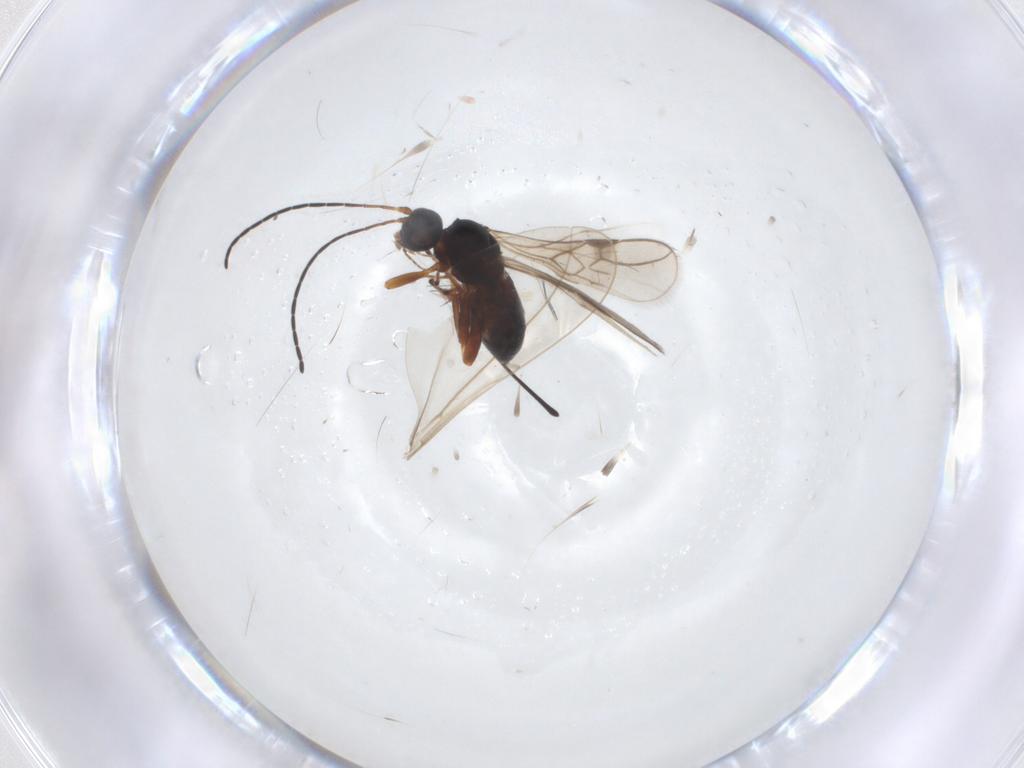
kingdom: Animalia
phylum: Arthropoda
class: Insecta
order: Hymenoptera
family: Braconidae
